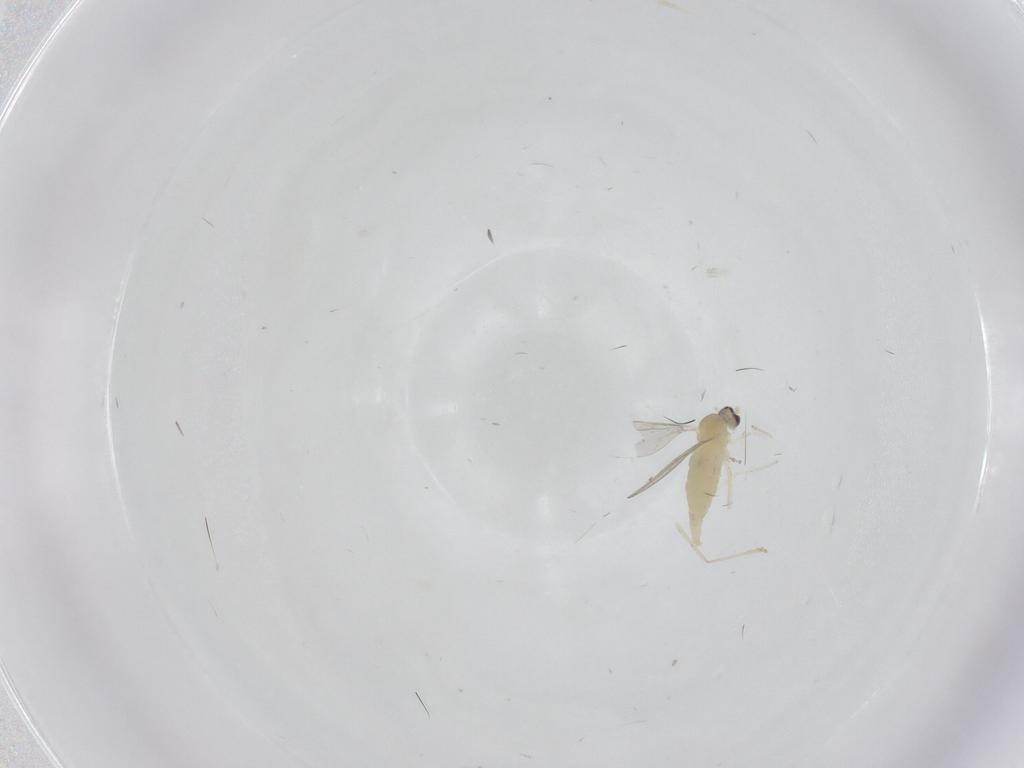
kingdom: Animalia
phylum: Arthropoda
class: Insecta
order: Diptera
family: Cecidomyiidae
